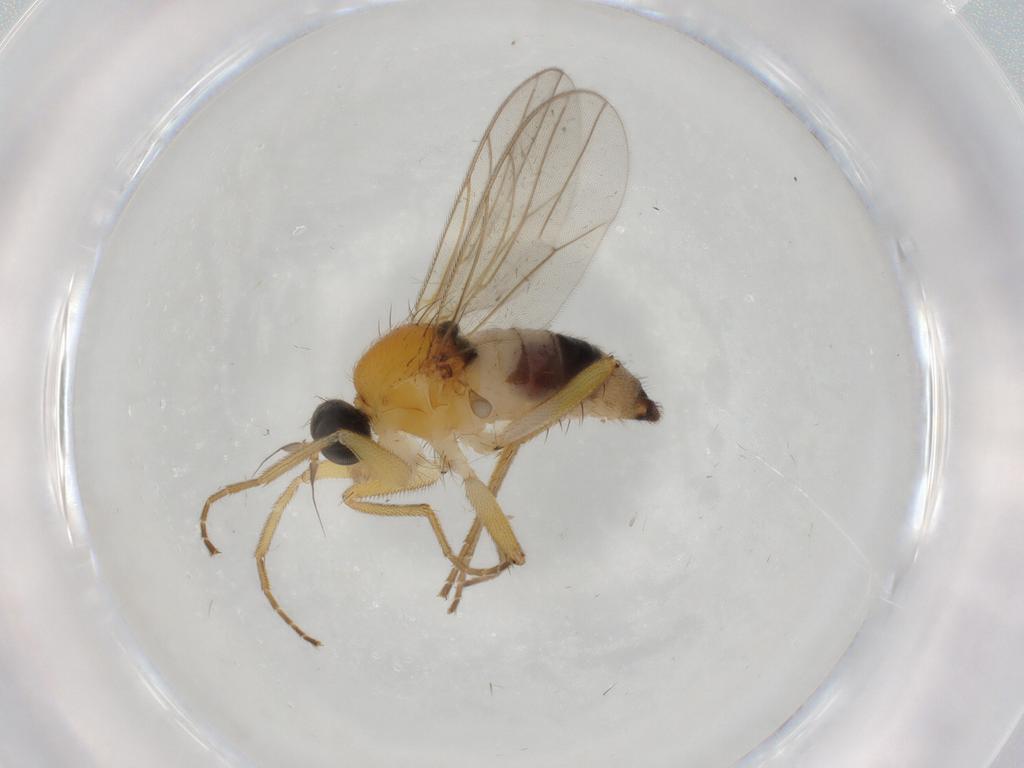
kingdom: Animalia
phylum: Arthropoda
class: Insecta
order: Diptera
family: Hybotidae
